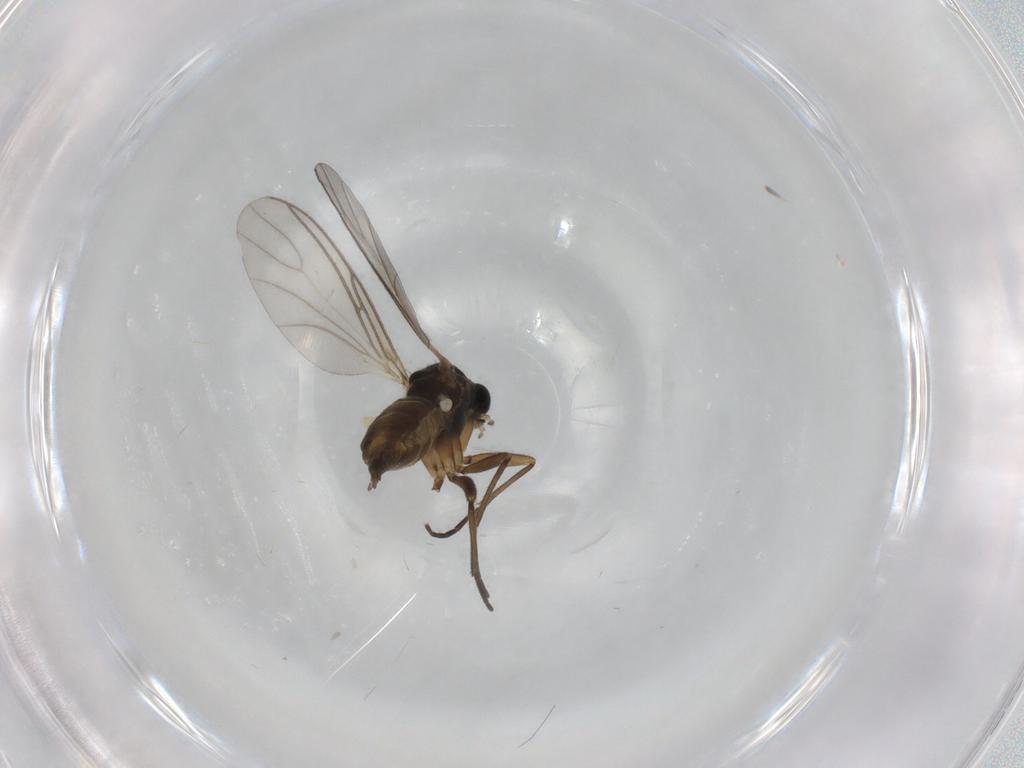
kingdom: Animalia
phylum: Arthropoda
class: Insecta
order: Diptera
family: Sciaridae
